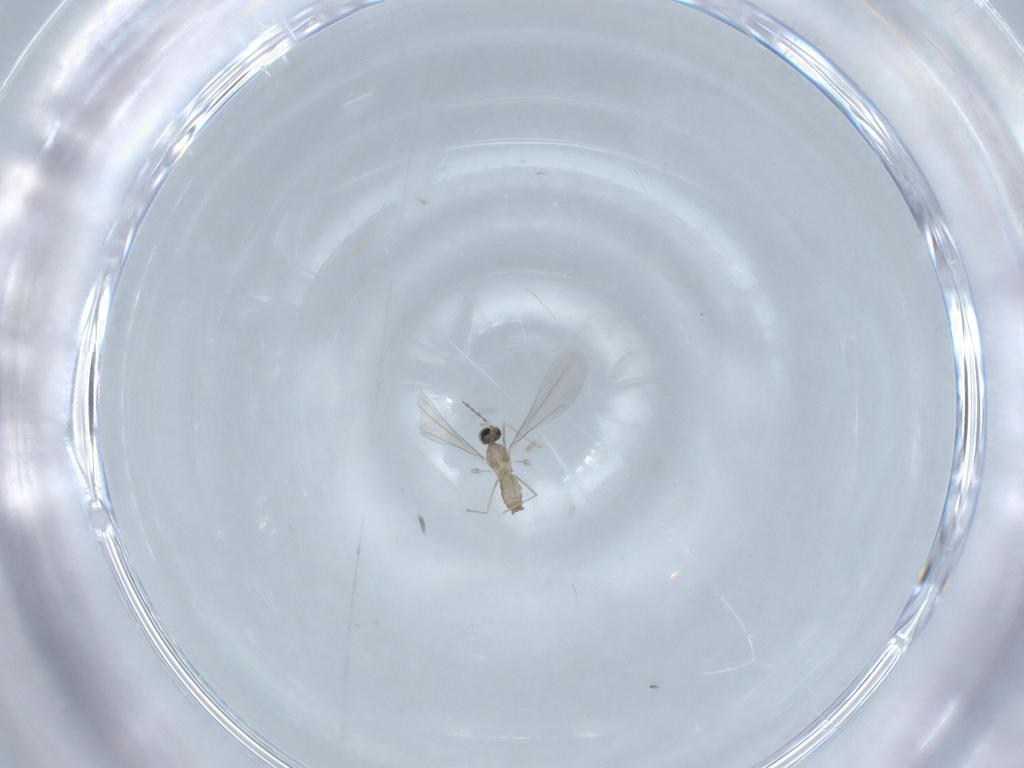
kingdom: Animalia
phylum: Arthropoda
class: Insecta
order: Diptera
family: Cecidomyiidae
